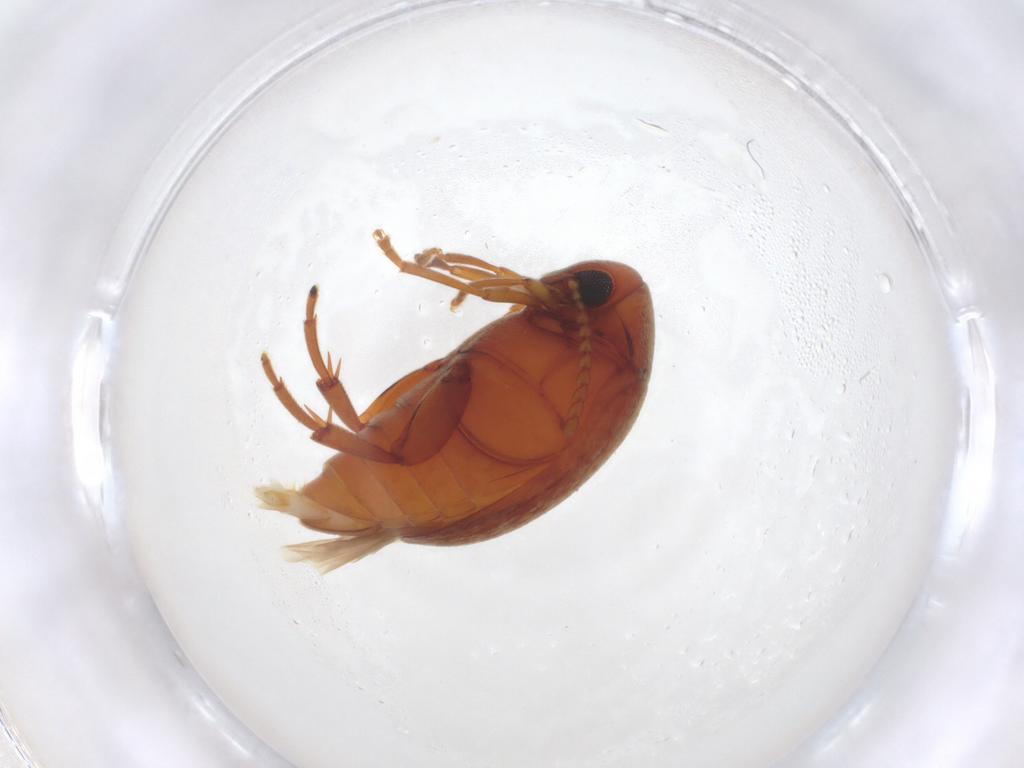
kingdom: Animalia
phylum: Arthropoda
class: Insecta
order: Coleoptera
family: Chrysomelidae
